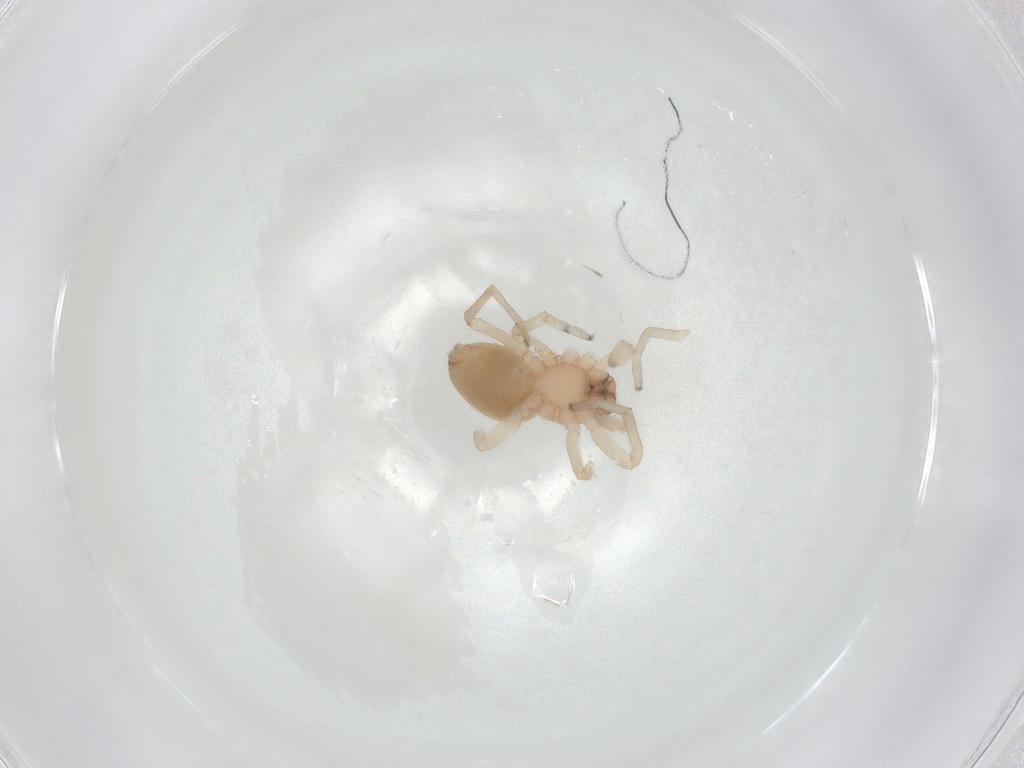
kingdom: Animalia
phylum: Arthropoda
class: Arachnida
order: Araneae
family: Trachelidae
